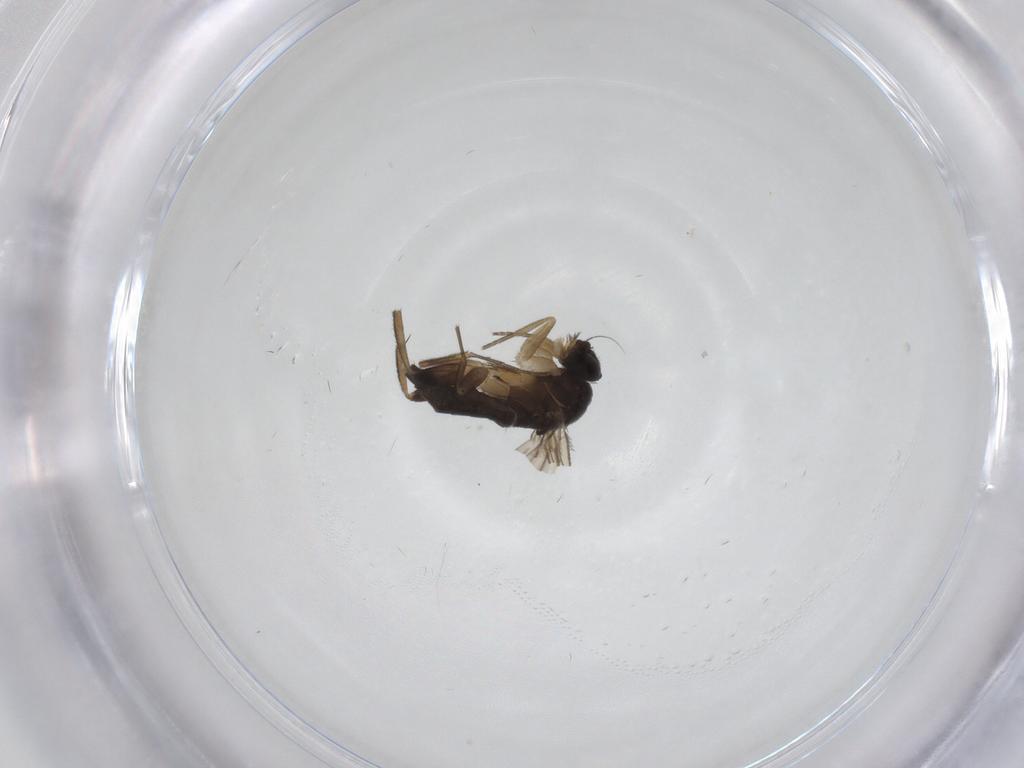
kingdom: Animalia
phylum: Arthropoda
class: Insecta
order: Diptera
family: Phoridae
